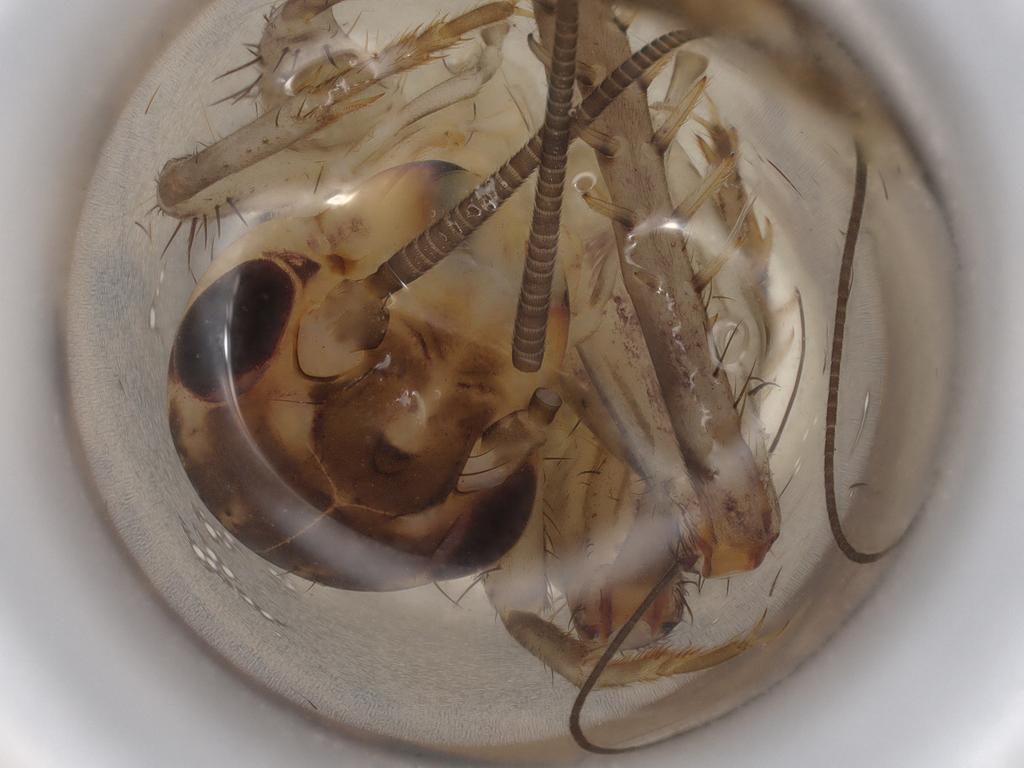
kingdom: Animalia
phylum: Arthropoda
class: Insecta
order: Orthoptera
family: Gryllidae
